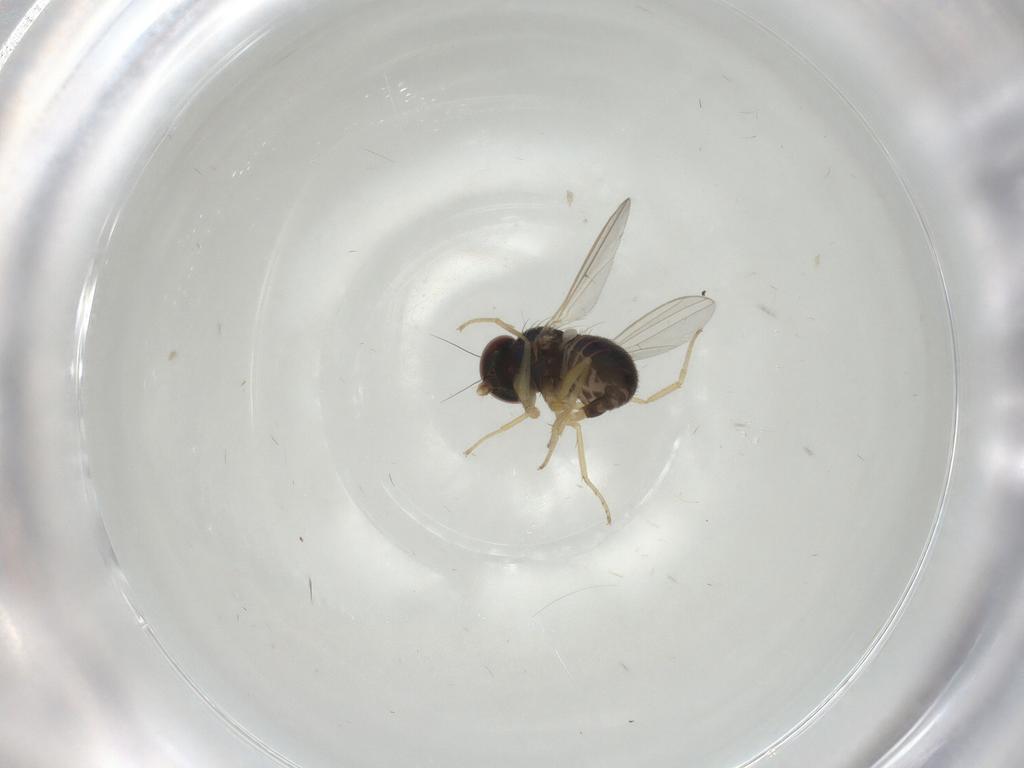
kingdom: Animalia
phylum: Arthropoda
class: Insecta
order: Diptera
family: Dolichopodidae
